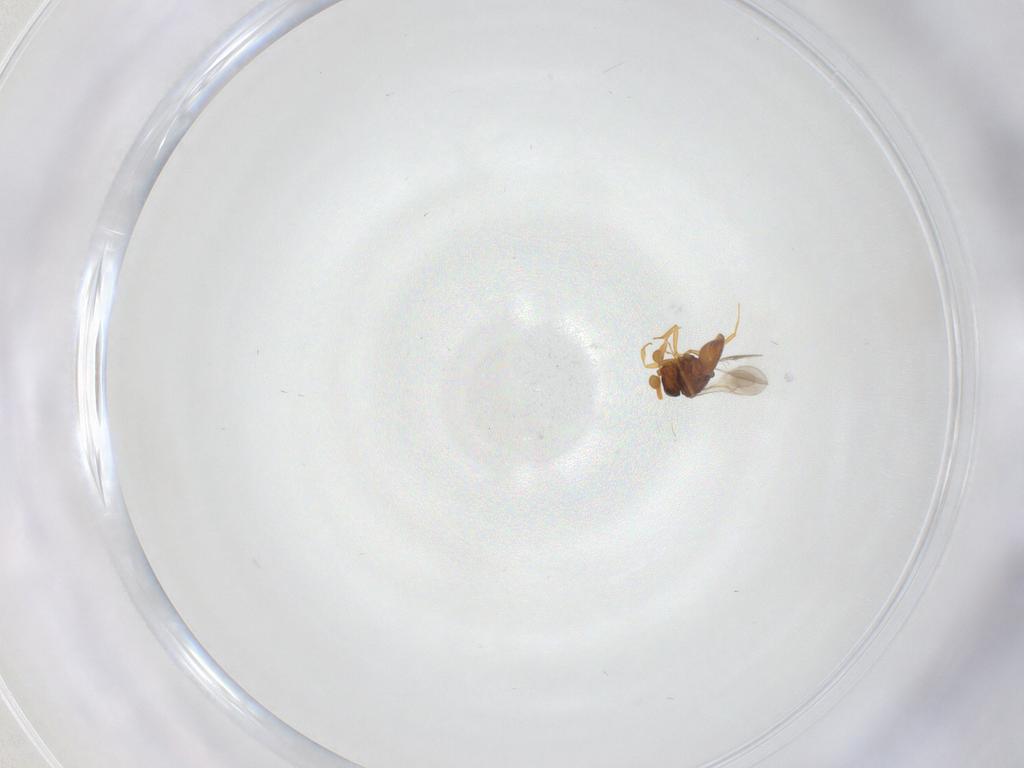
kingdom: Animalia
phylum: Arthropoda
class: Insecta
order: Hymenoptera
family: Scelionidae
